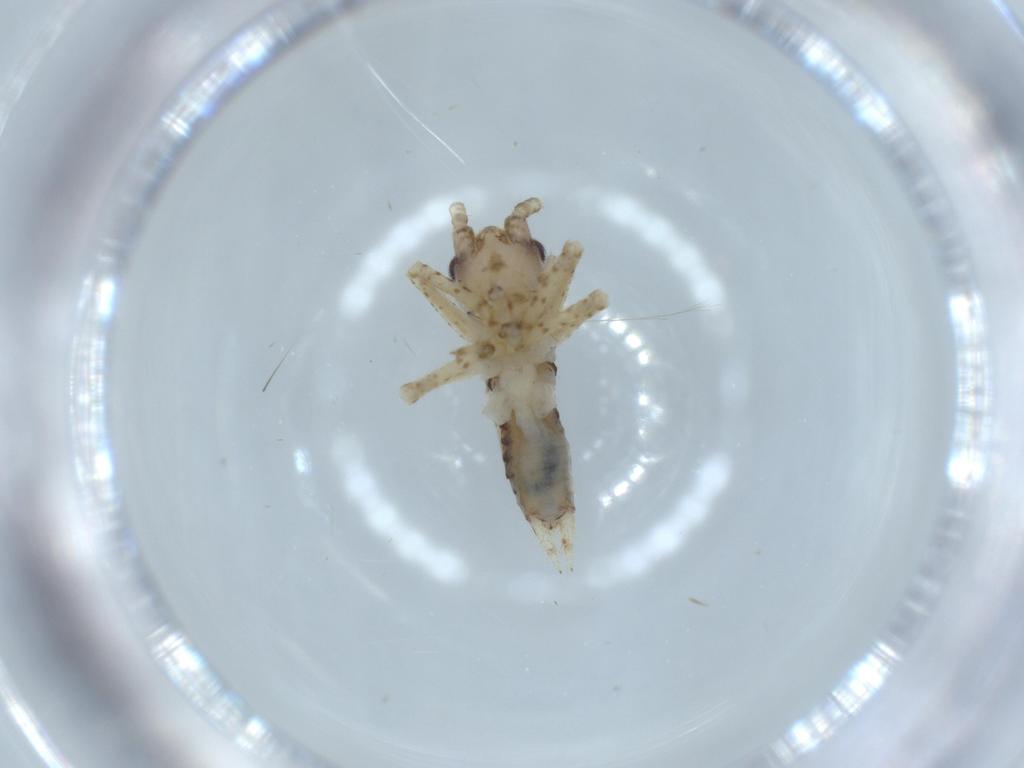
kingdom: Animalia
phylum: Arthropoda
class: Insecta
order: Orthoptera
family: Gryllidae
